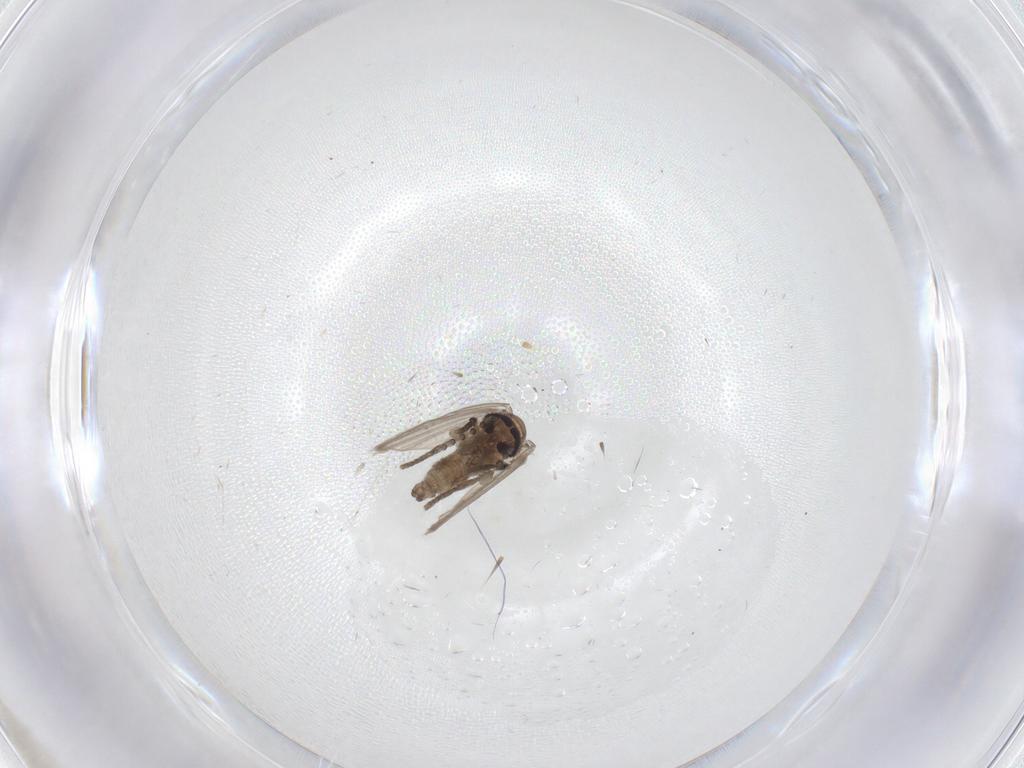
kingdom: Animalia
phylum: Arthropoda
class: Insecta
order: Diptera
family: Psychodidae
